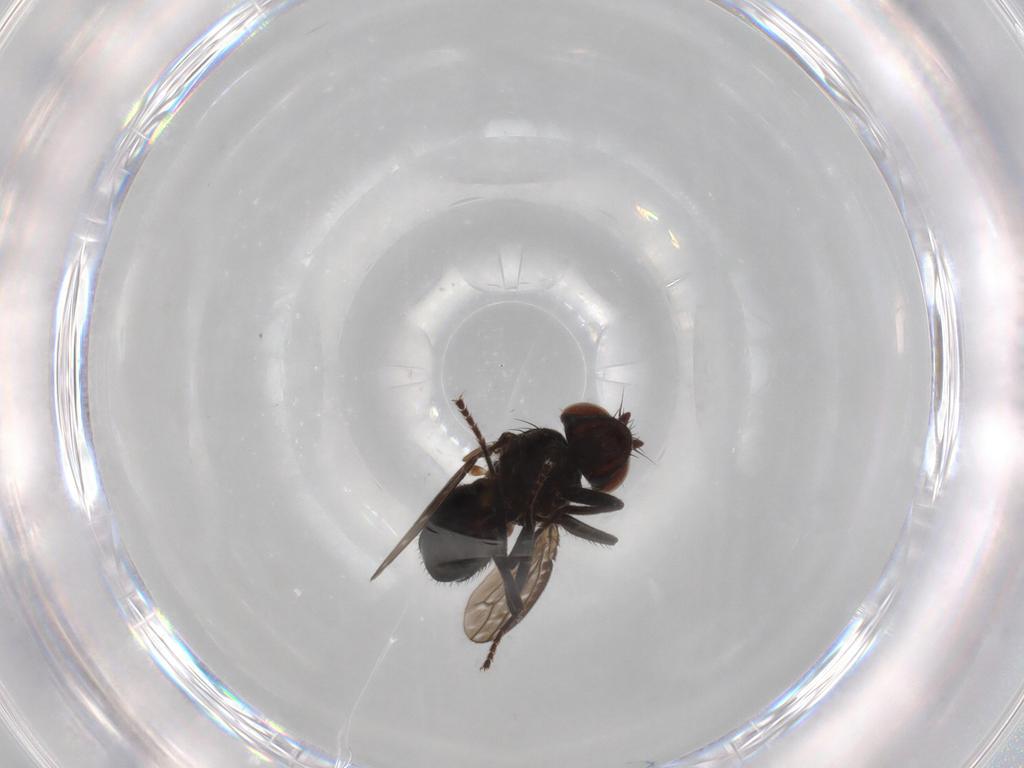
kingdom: Animalia
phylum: Arthropoda
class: Insecta
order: Diptera
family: Ephydridae
